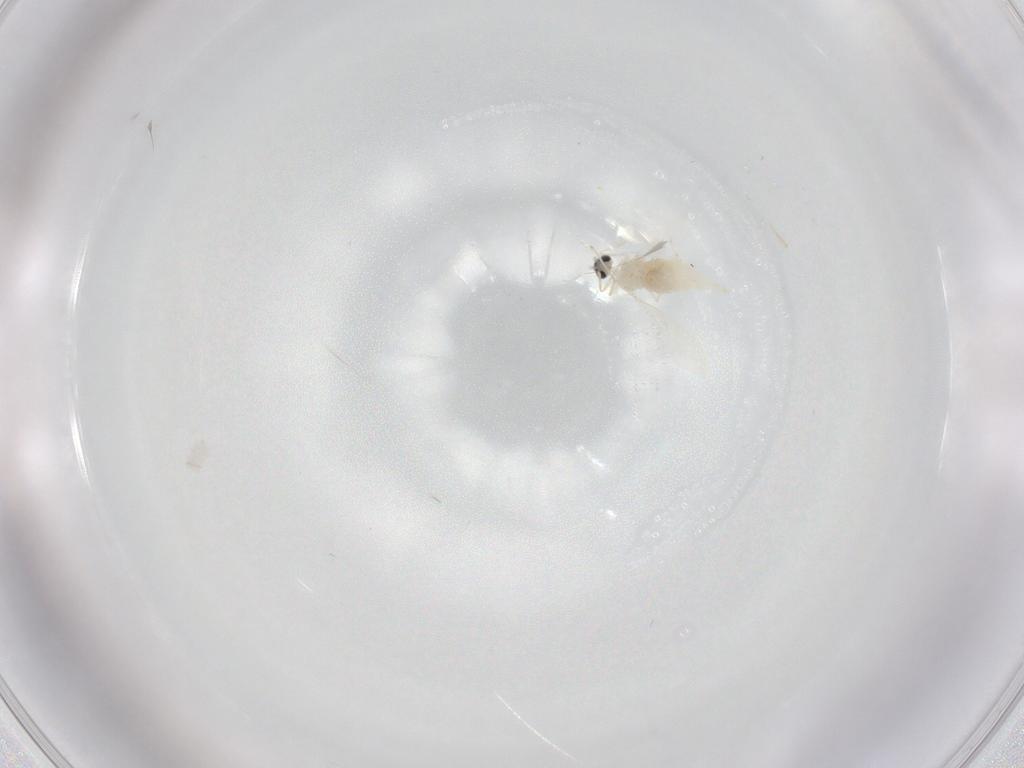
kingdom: Animalia
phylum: Arthropoda
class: Insecta
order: Diptera
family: Cecidomyiidae
